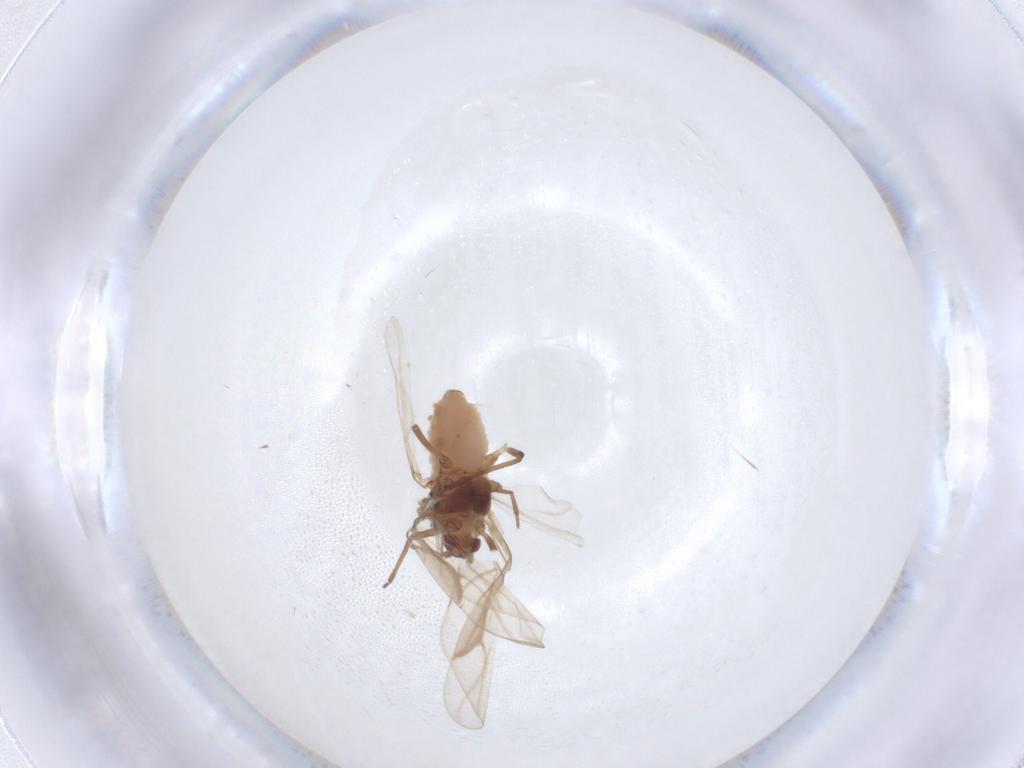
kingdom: Animalia
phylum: Arthropoda
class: Insecta
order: Hemiptera
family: Aphididae
